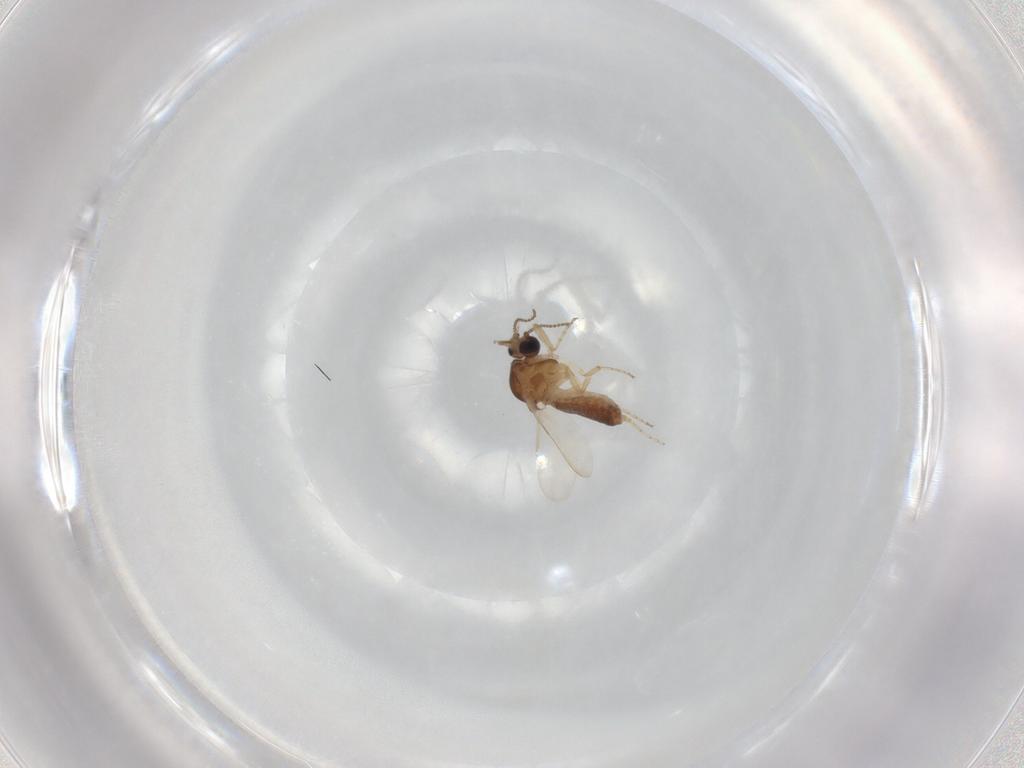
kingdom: Animalia
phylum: Arthropoda
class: Insecta
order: Diptera
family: Ceratopogonidae
